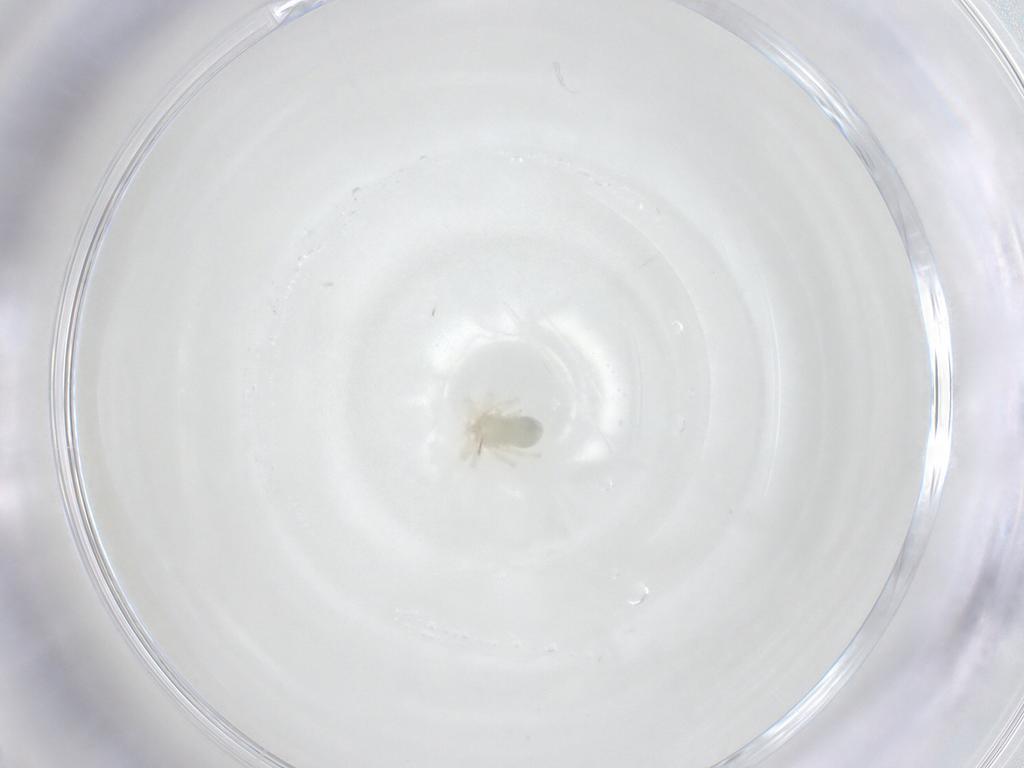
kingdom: Animalia
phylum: Arthropoda
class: Arachnida
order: Trombidiformes
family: Anystidae
